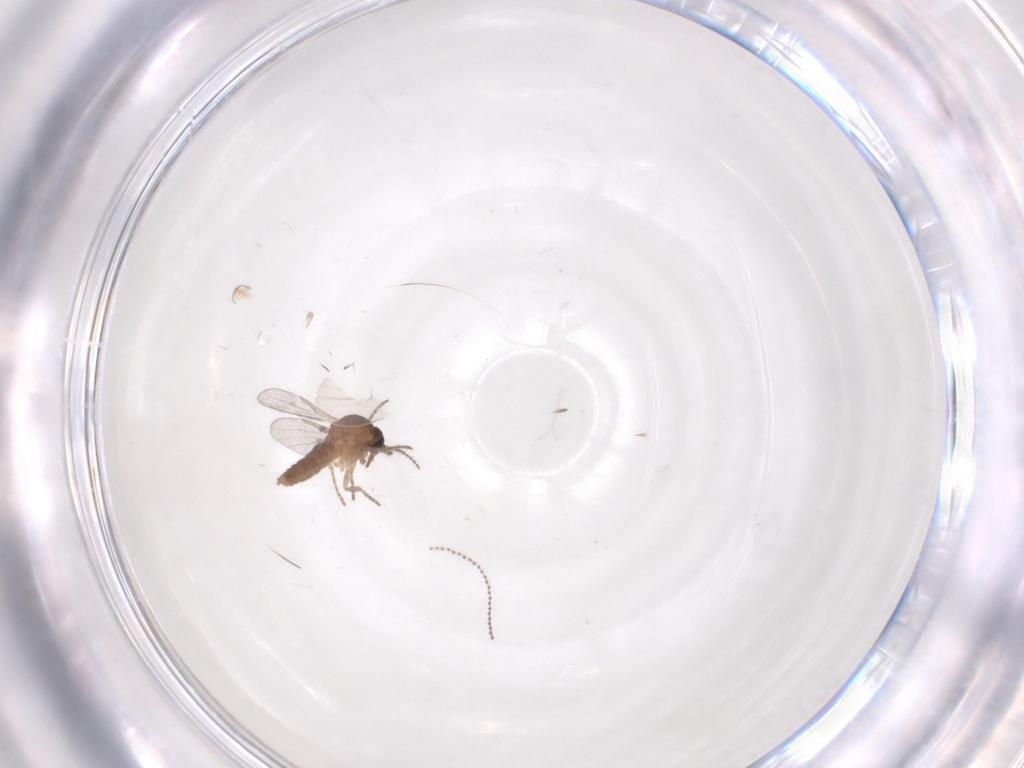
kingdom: Animalia
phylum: Arthropoda
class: Insecta
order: Diptera
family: Ceratopogonidae
